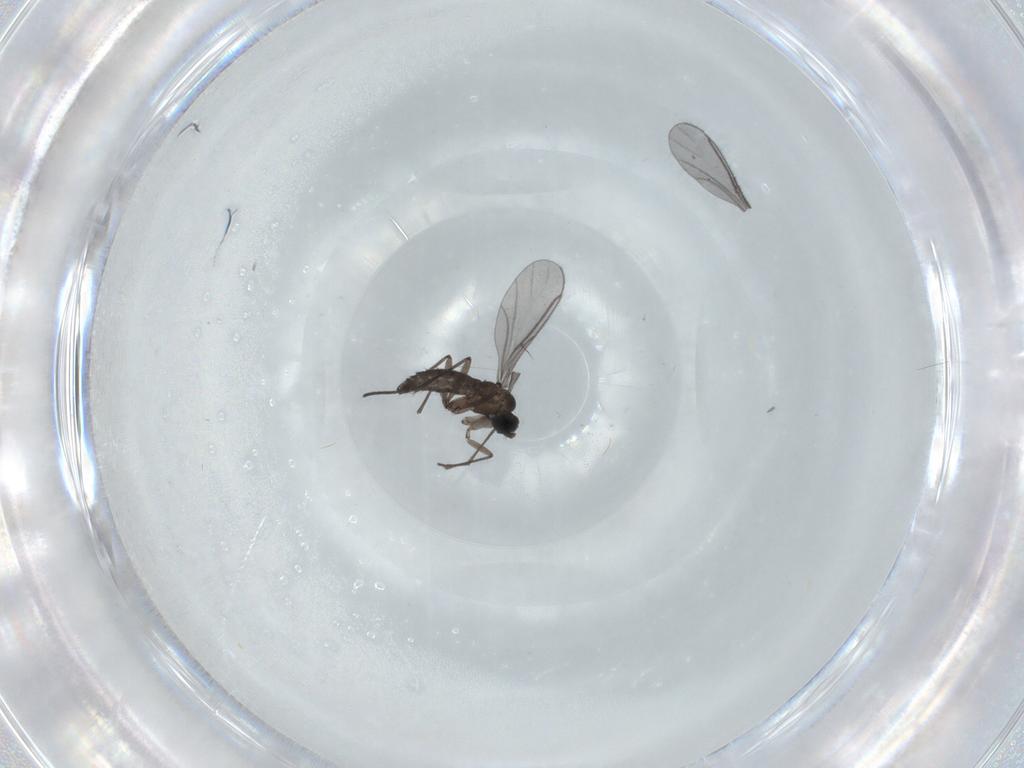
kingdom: Animalia
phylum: Arthropoda
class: Insecta
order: Diptera
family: Chironomidae
